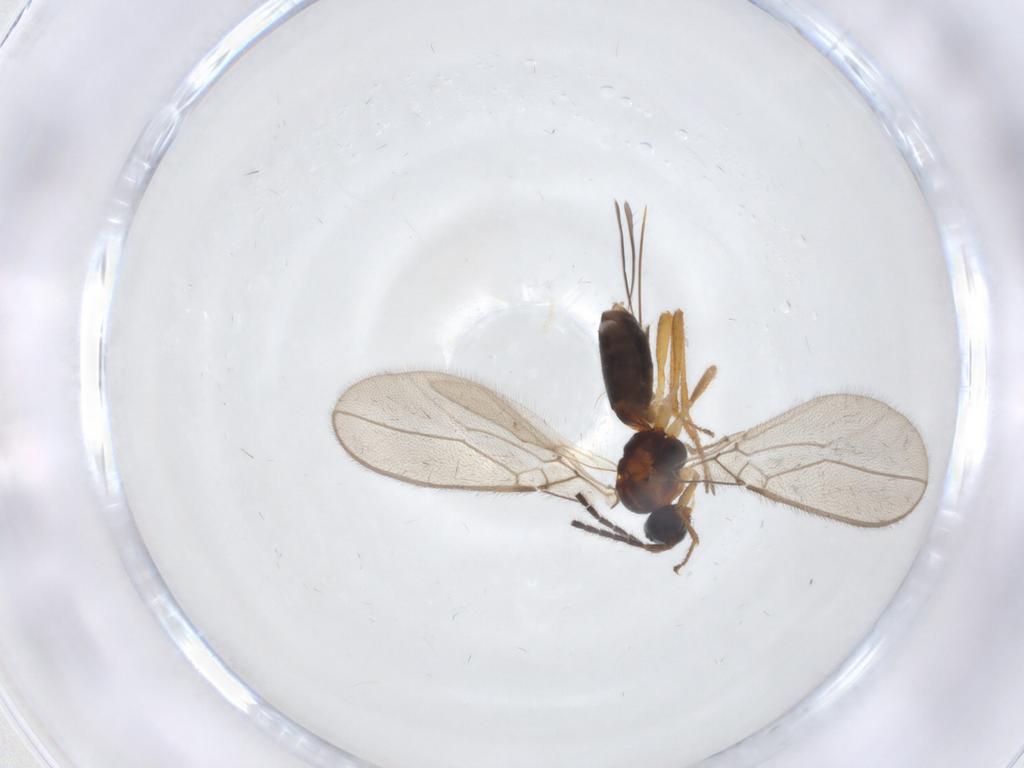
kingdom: Animalia
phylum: Arthropoda
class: Insecta
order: Hymenoptera
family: Braconidae
